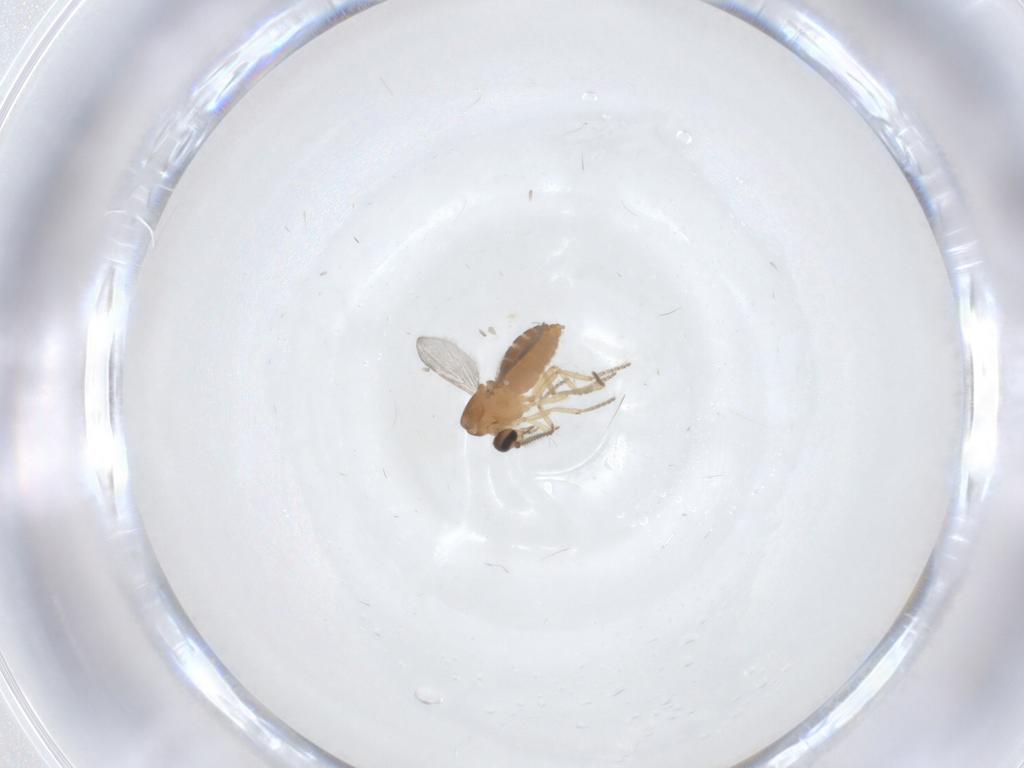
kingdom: Animalia
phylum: Arthropoda
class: Insecta
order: Diptera
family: Ceratopogonidae
